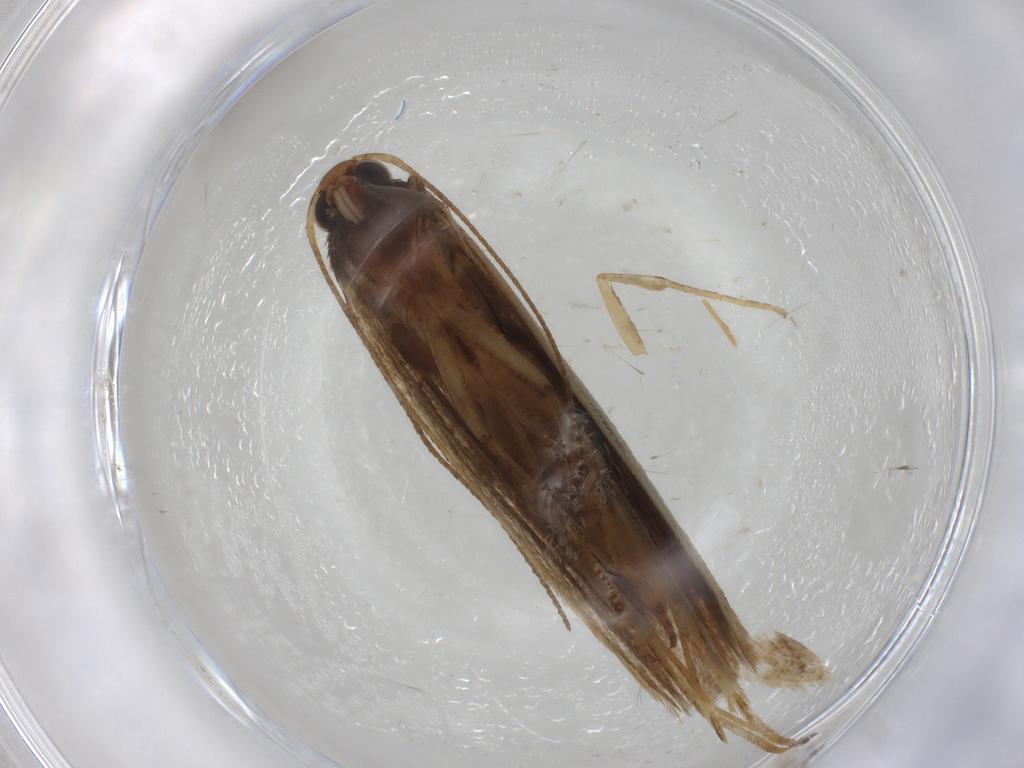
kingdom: Animalia
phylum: Arthropoda
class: Insecta
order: Lepidoptera
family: Gelechiidae
